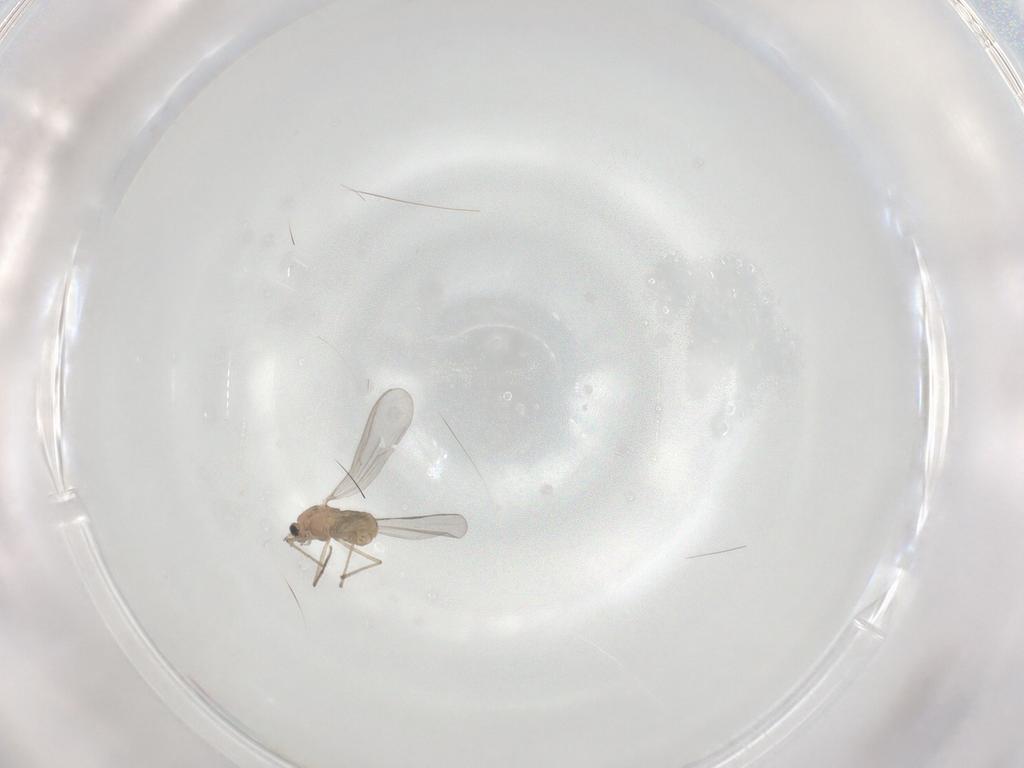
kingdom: Animalia
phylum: Arthropoda
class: Insecta
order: Diptera
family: Chironomidae
